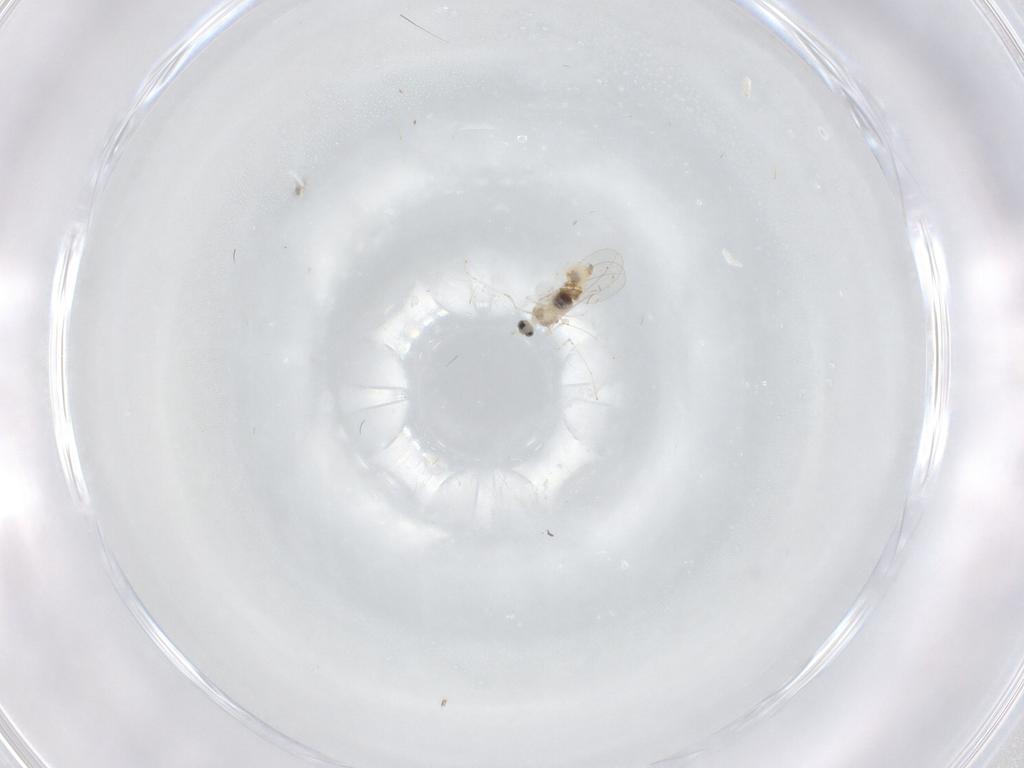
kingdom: Animalia
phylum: Arthropoda
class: Insecta
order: Diptera
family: Cecidomyiidae
